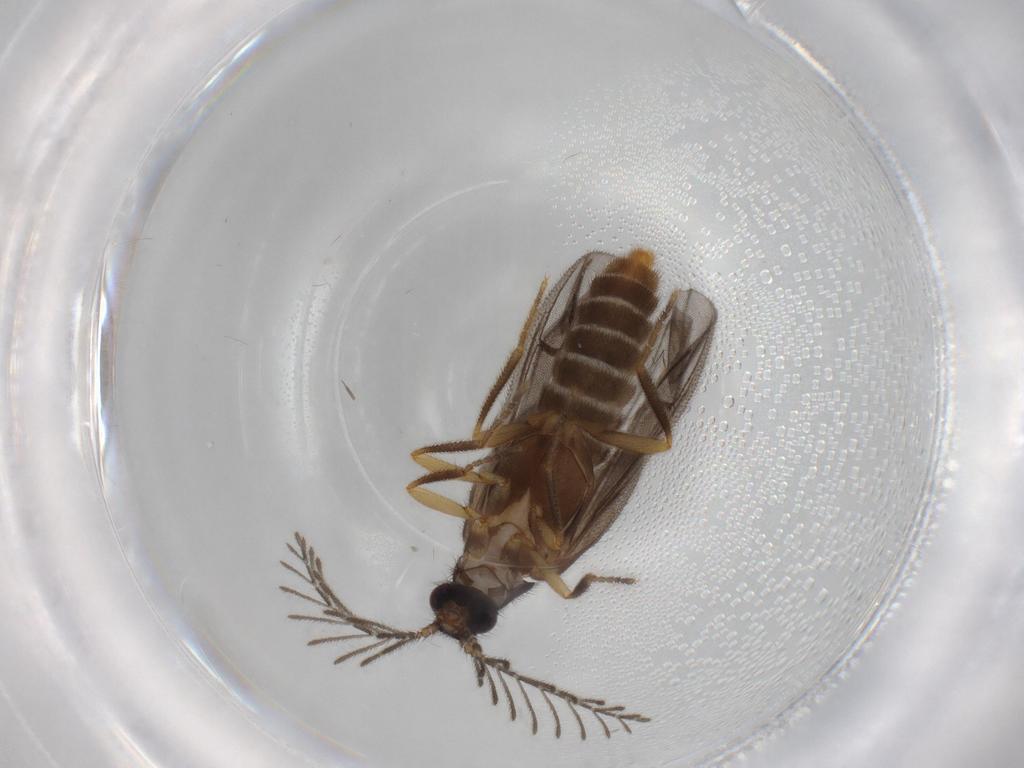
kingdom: Animalia
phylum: Arthropoda
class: Insecta
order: Coleoptera
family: Chrysomelidae
